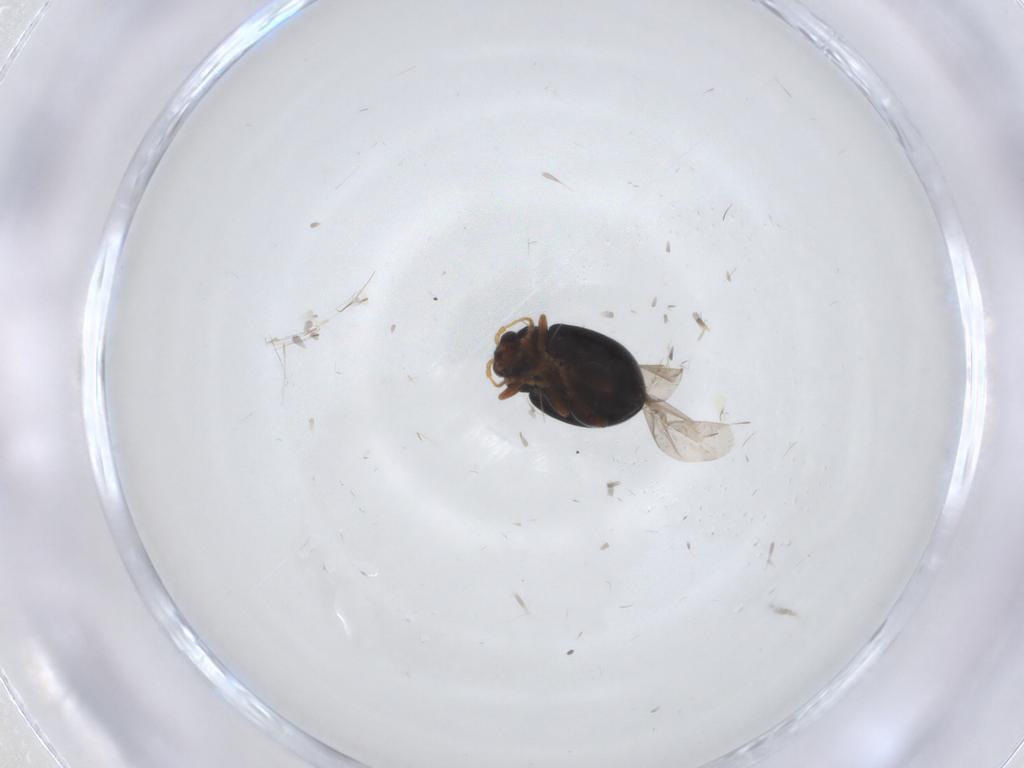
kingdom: Animalia
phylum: Arthropoda
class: Insecta
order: Coleoptera
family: Chrysomelidae
